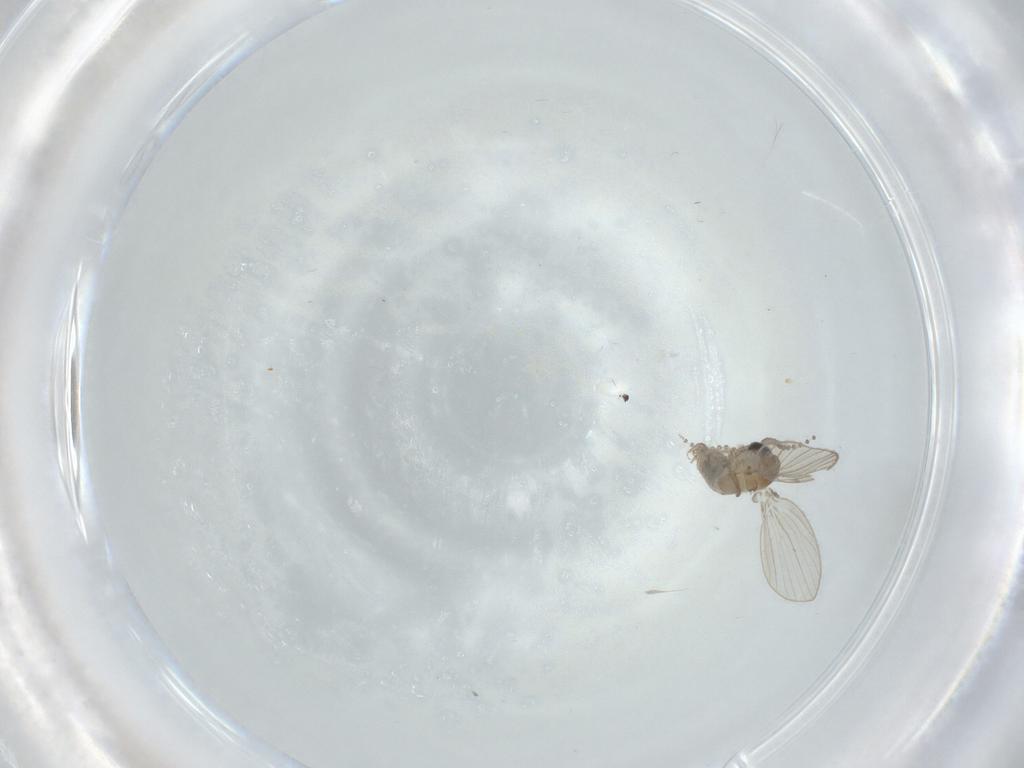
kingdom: Animalia
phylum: Arthropoda
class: Insecta
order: Diptera
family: Psychodidae
